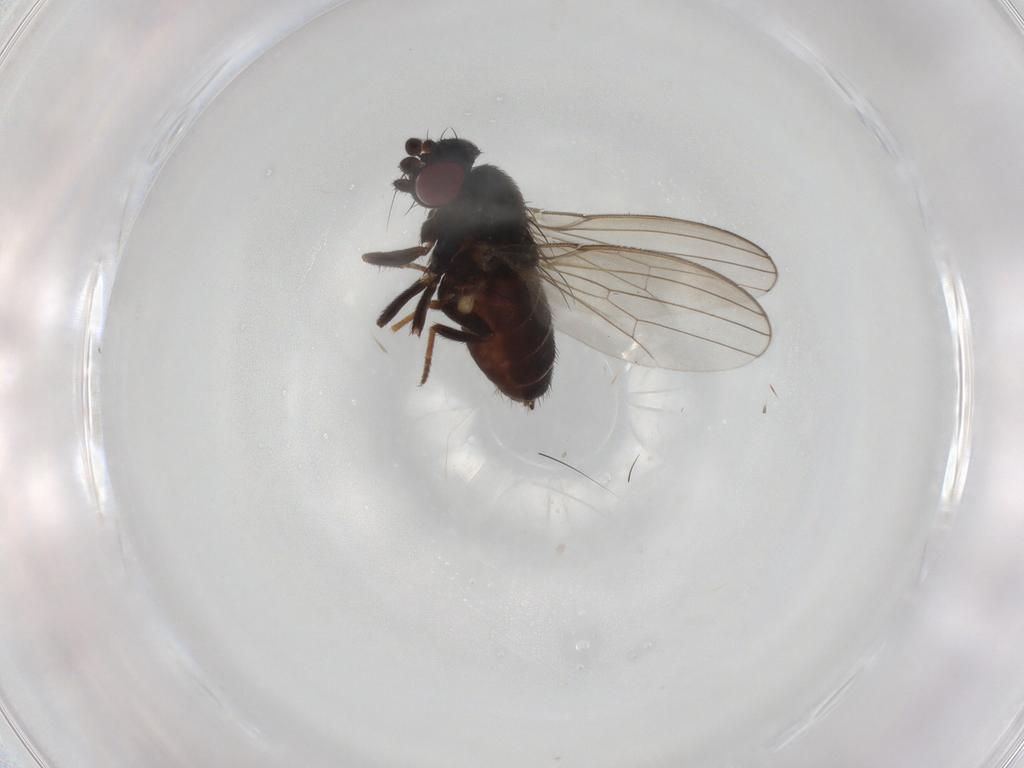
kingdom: Animalia
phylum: Arthropoda
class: Insecta
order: Diptera
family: Milichiidae
